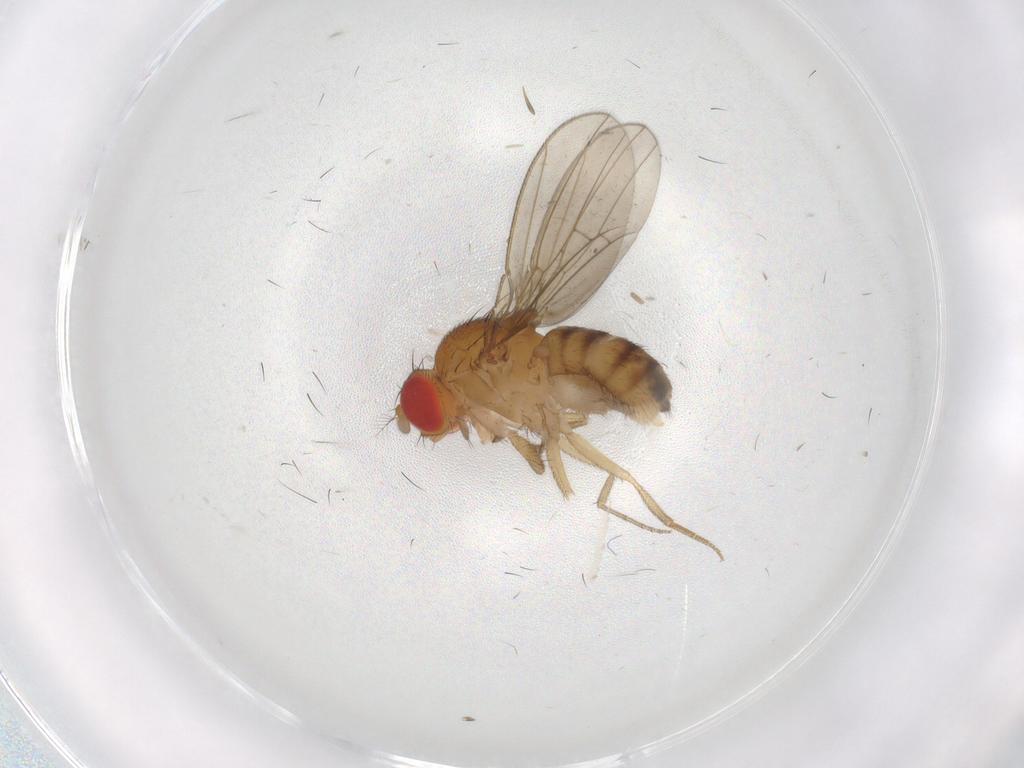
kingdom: Animalia
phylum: Arthropoda
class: Insecta
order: Diptera
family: Drosophilidae
